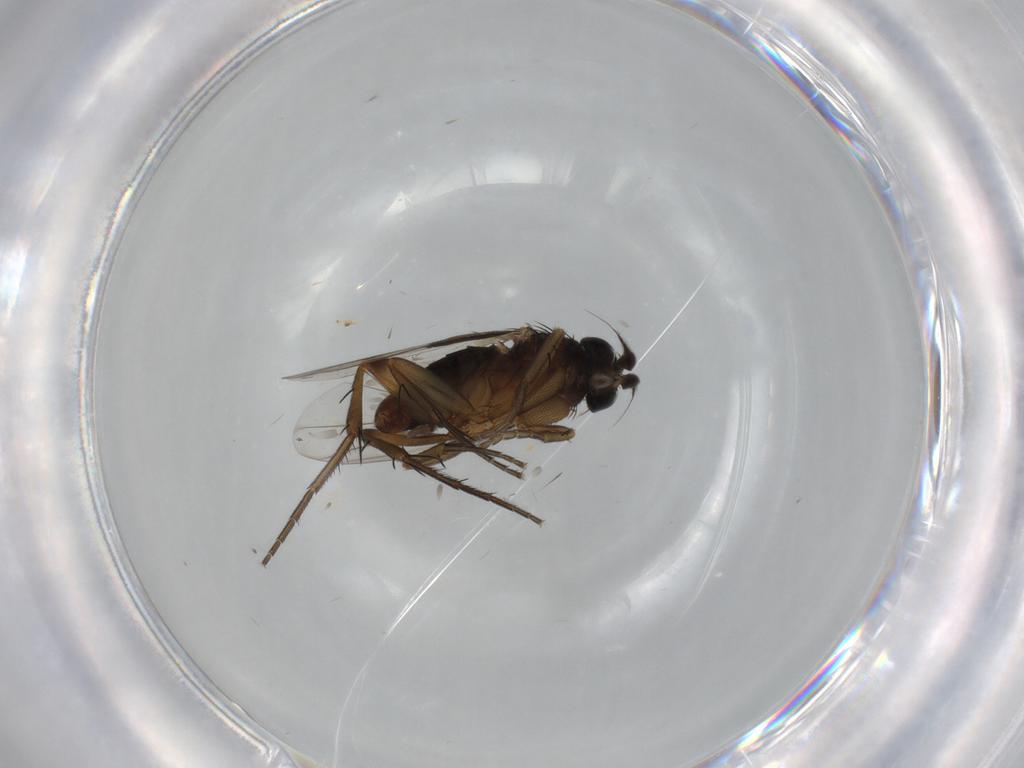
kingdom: Animalia
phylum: Arthropoda
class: Insecta
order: Diptera
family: Phoridae
